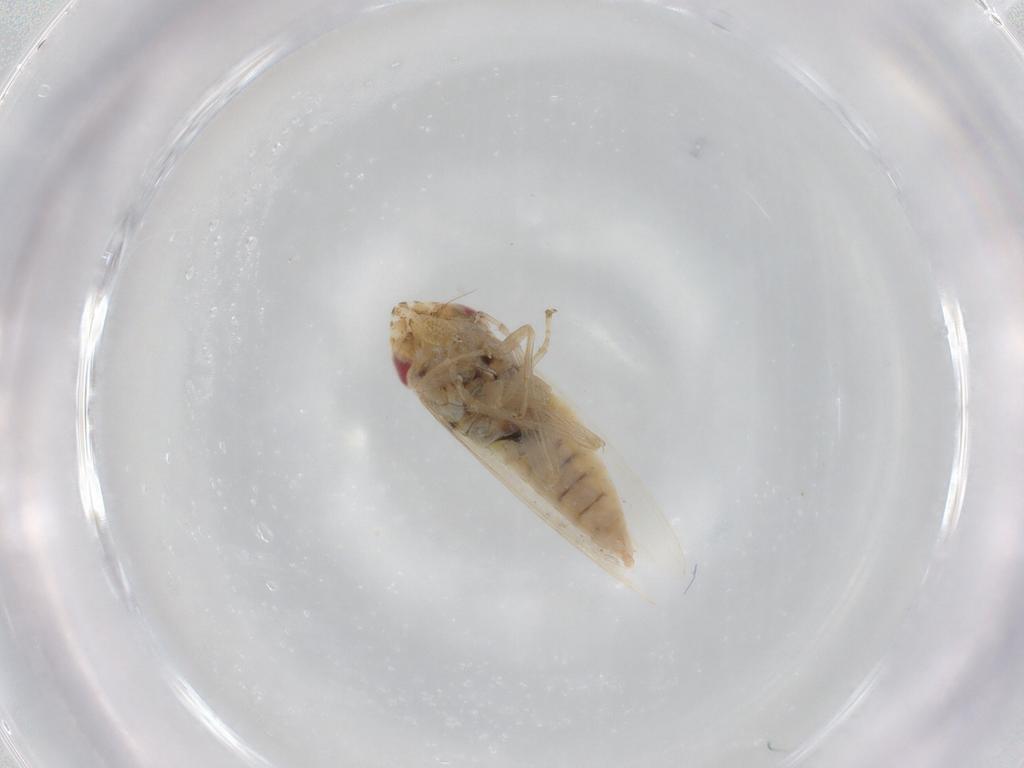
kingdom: Animalia
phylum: Arthropoda
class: Insecta
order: Hemiptera
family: Cicadellidae
